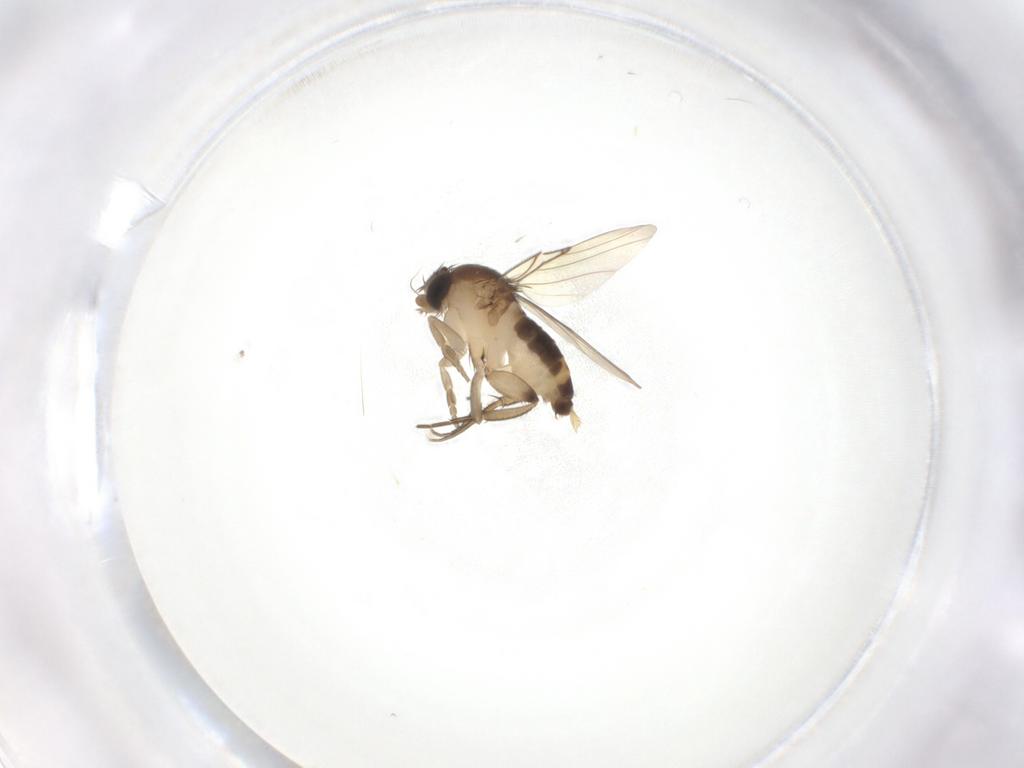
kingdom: Animalia
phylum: Arthropoda
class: Insecta
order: Diptera
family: Phoridae
